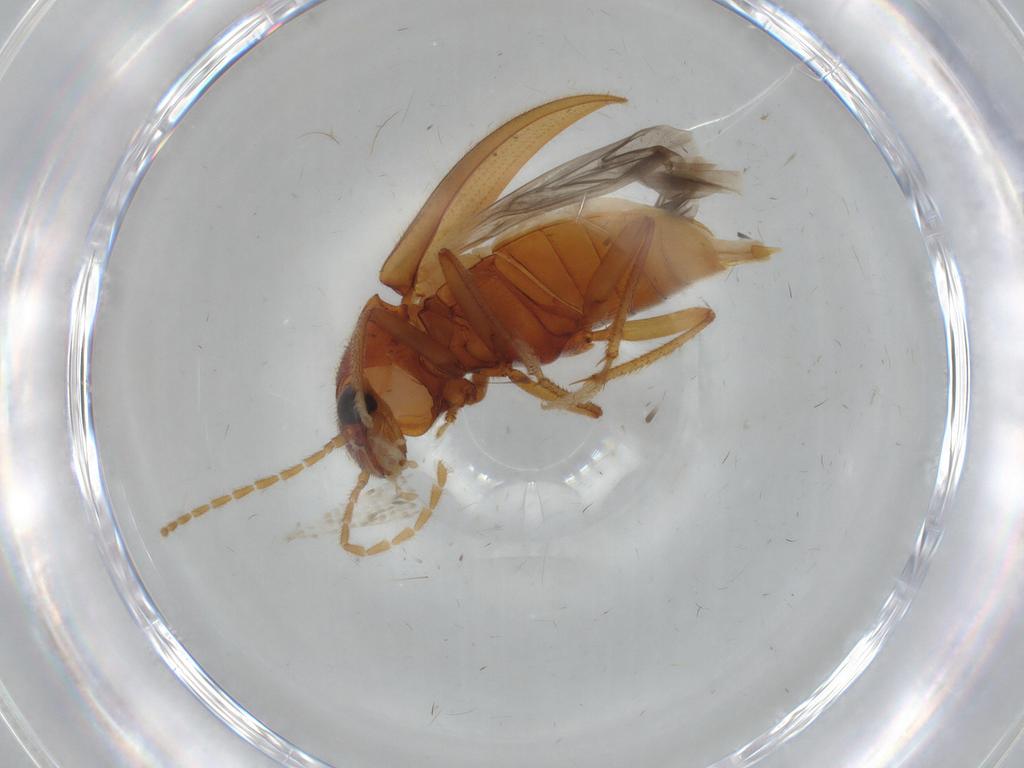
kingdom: Animalia
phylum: Arthropoda
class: Insecta
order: Coleoptera
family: Ptilodactylidae
